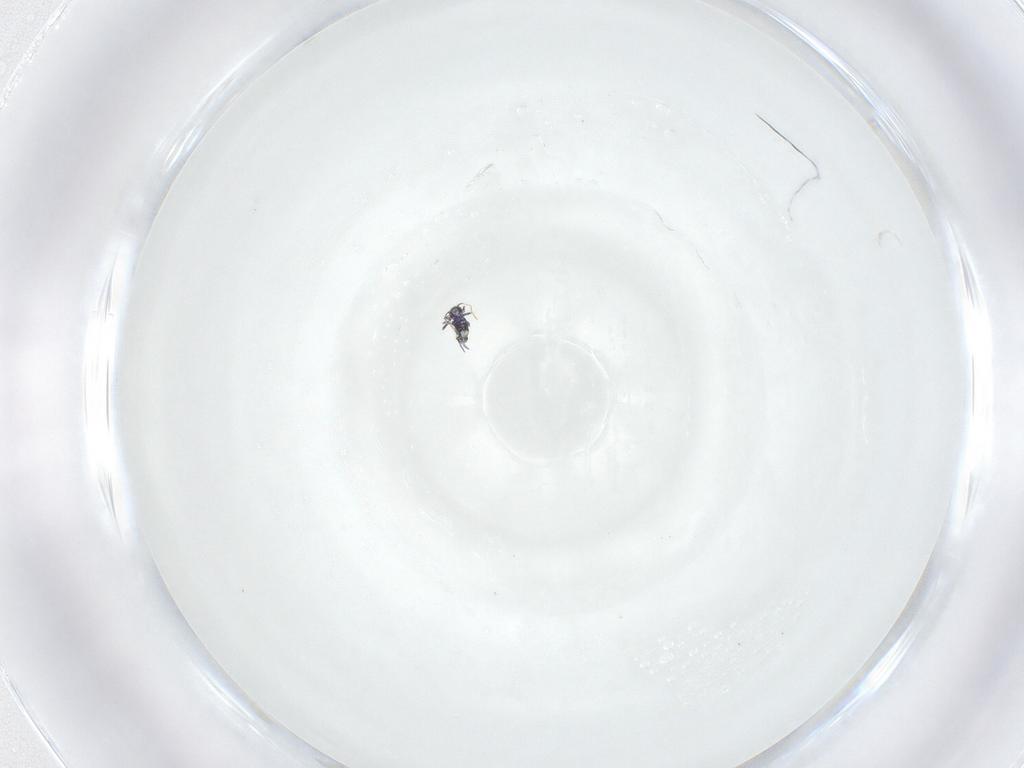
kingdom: Animalia
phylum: Arthropoda
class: Collembola
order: Symphypleona
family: Katiannidae
